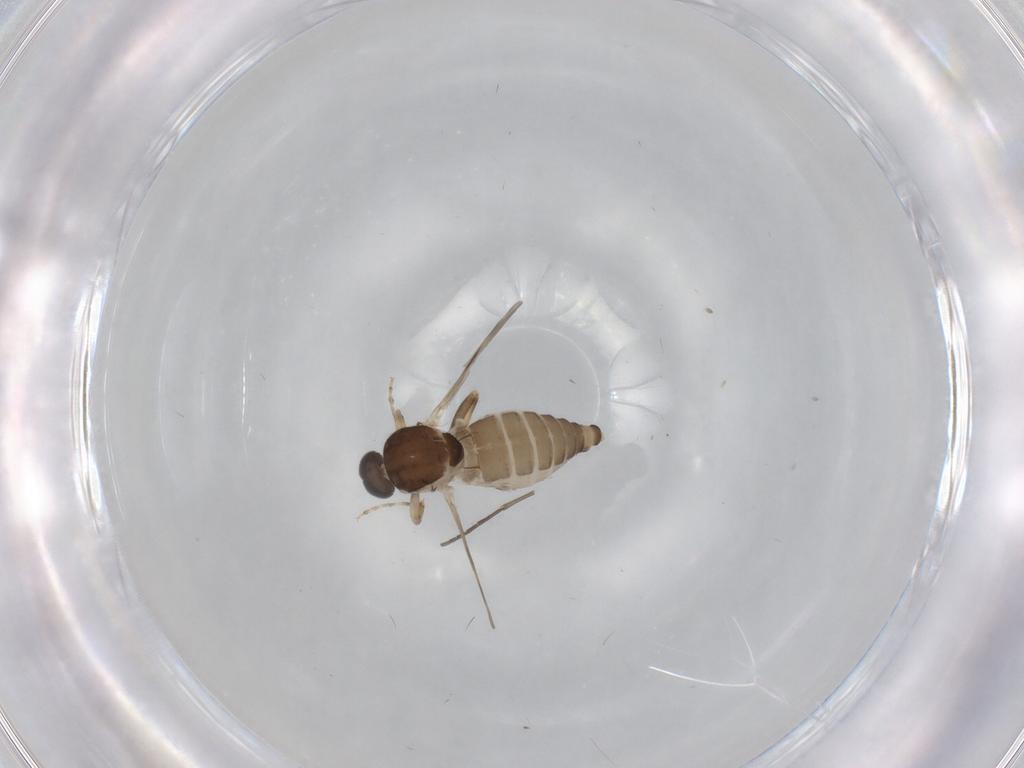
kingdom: Animalia
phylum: Arthropoda
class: Insecta
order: Diptera
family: Ceratopogonidae
